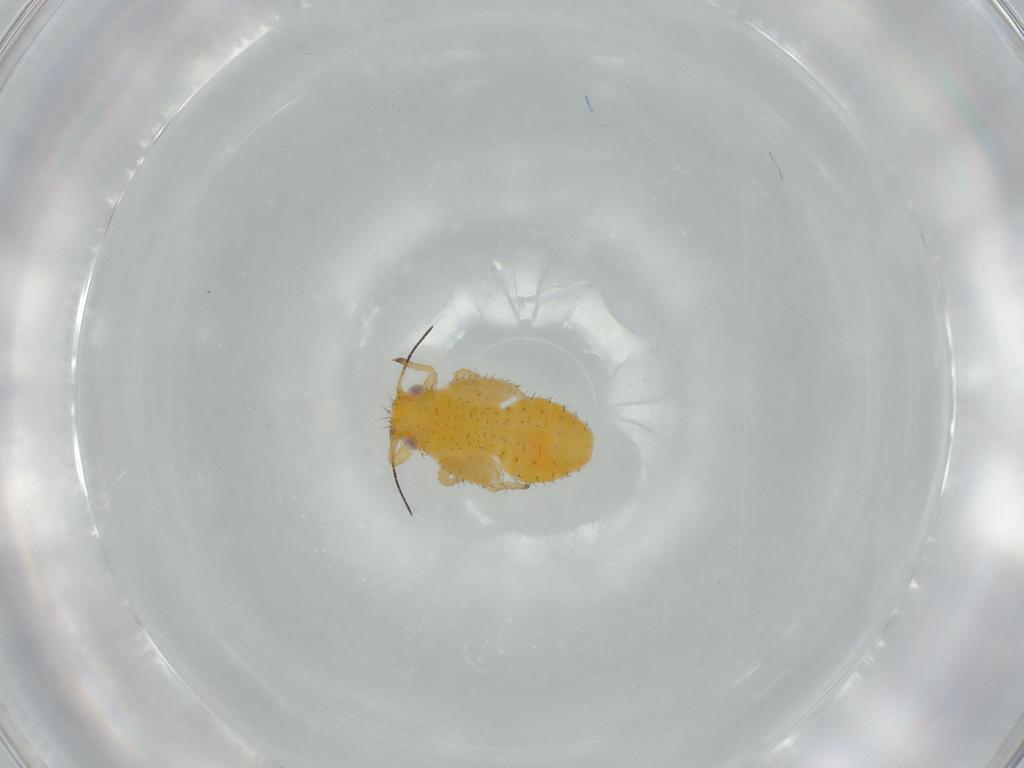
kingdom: Animalia
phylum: Arthropoda
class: Insecta
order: Hemiptera
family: Psyllidae
